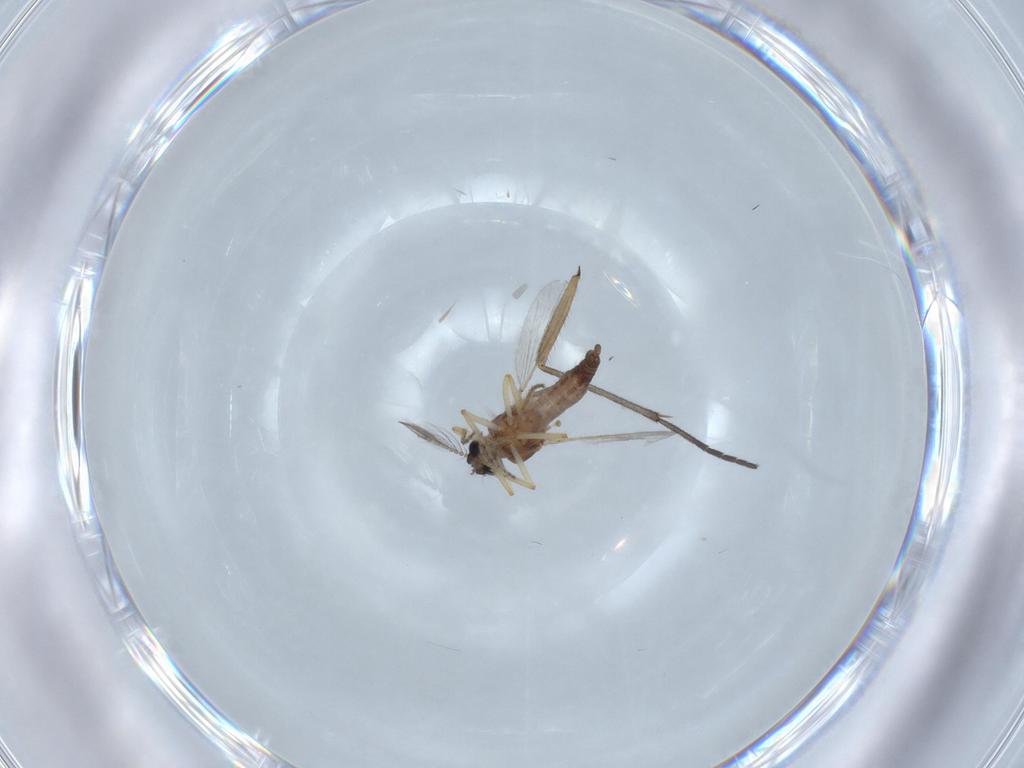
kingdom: Animalia
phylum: Arthropoda
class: Insecta
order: Diptera
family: Sciaridae
